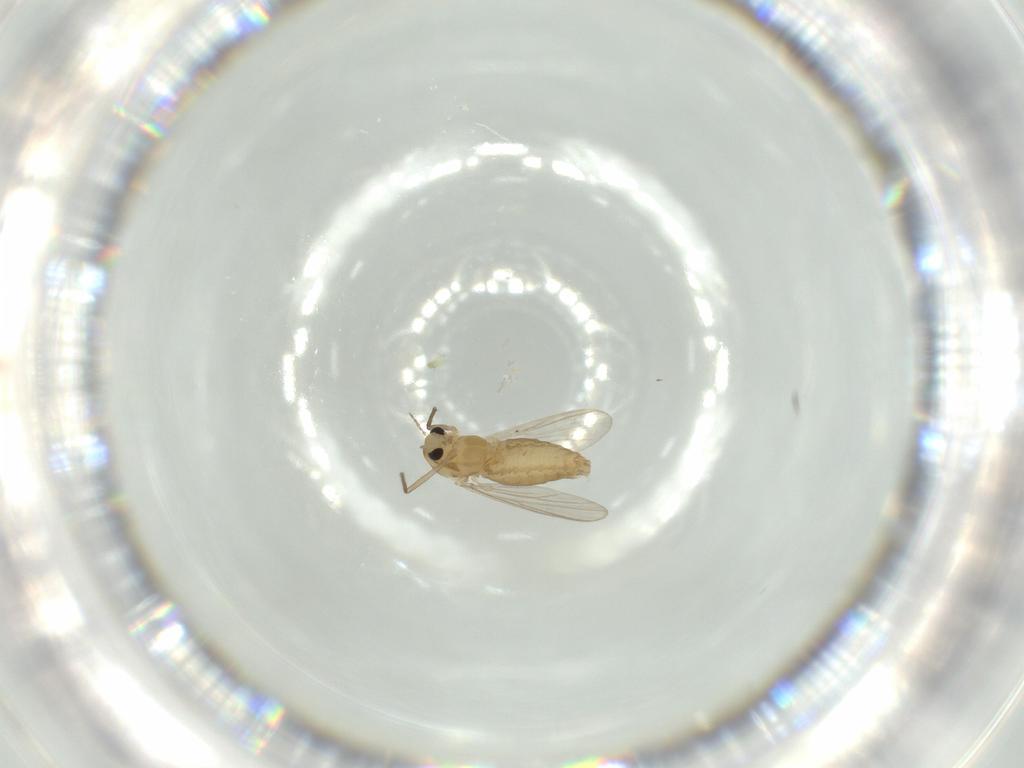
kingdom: Animalia
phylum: Arthropoda
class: Insecta
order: Diptera
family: Chironomidae
